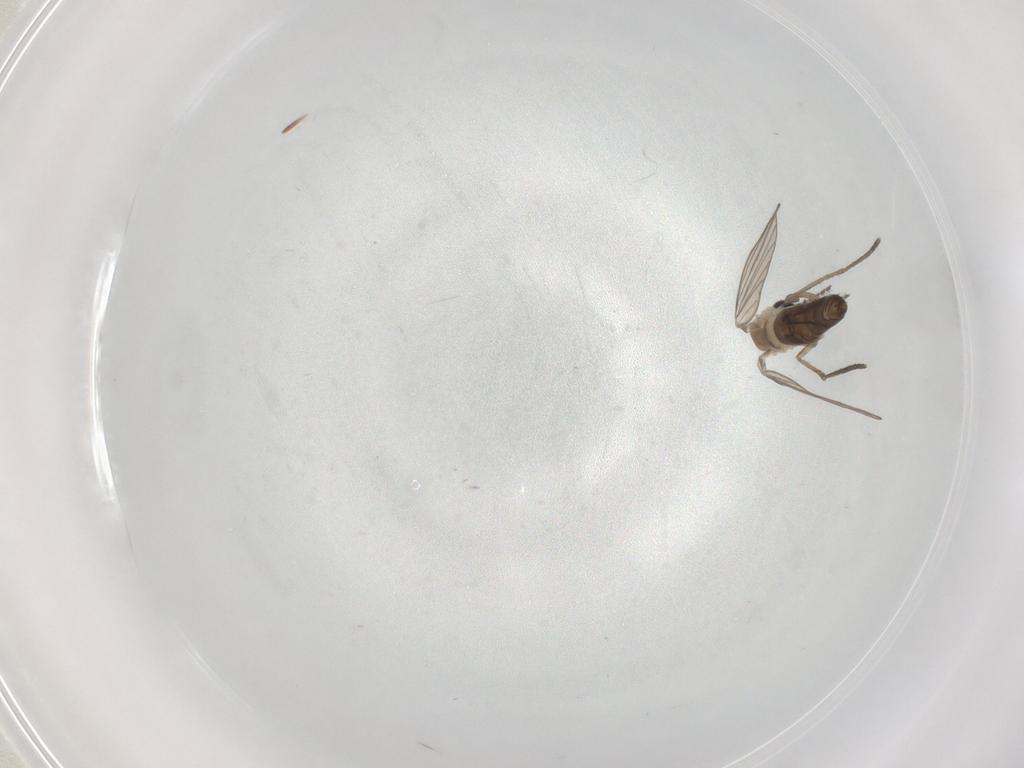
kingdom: Animalia
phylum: Arthropoda
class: Insecta
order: Diptera
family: Psychodidae
